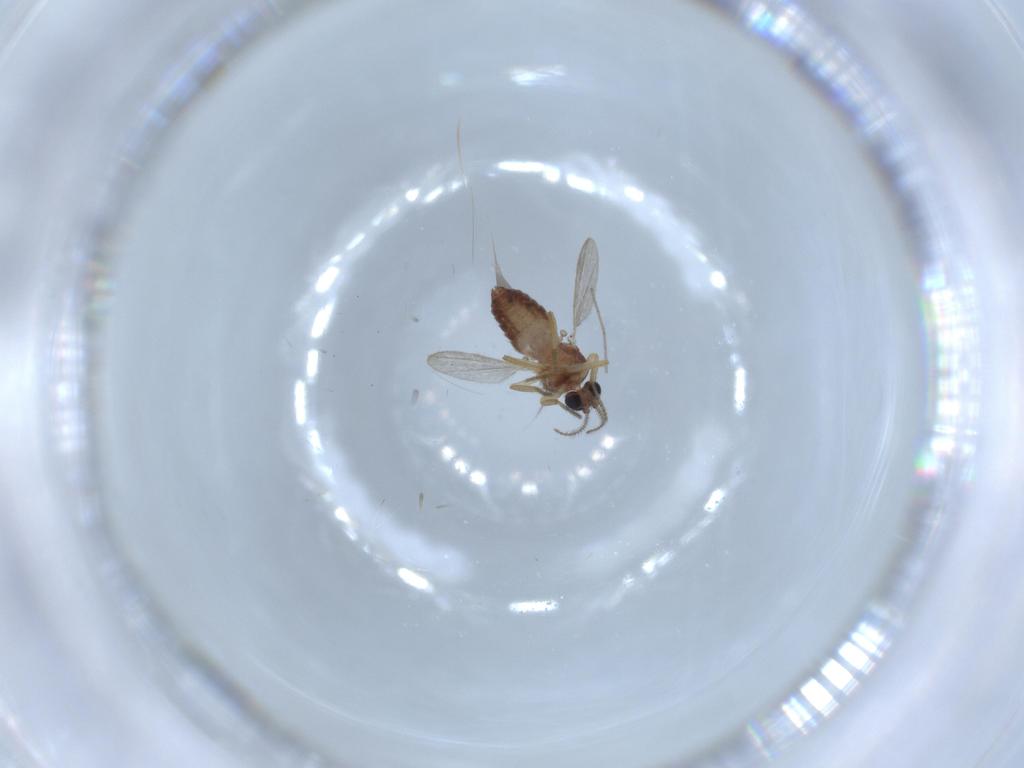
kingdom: Animalia
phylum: Arthropoda
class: Insecta
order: Diptera
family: Ceratopogonidae
